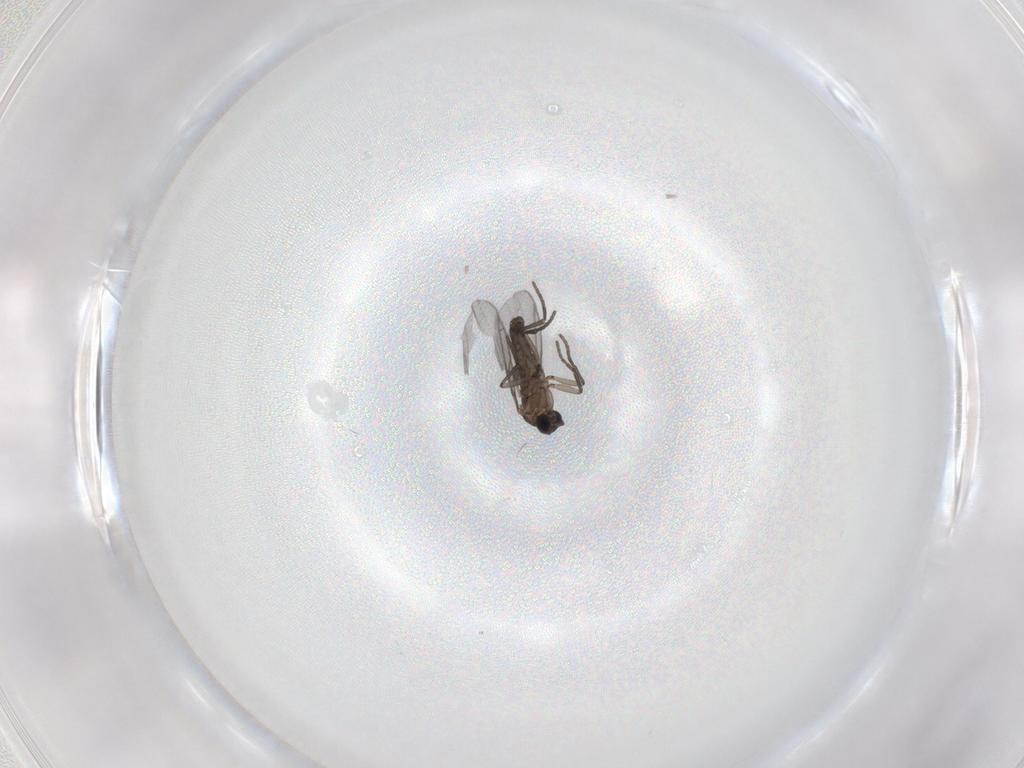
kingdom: Animalia
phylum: Arthropoda
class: Insecta
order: Diptera
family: Sciaridae
